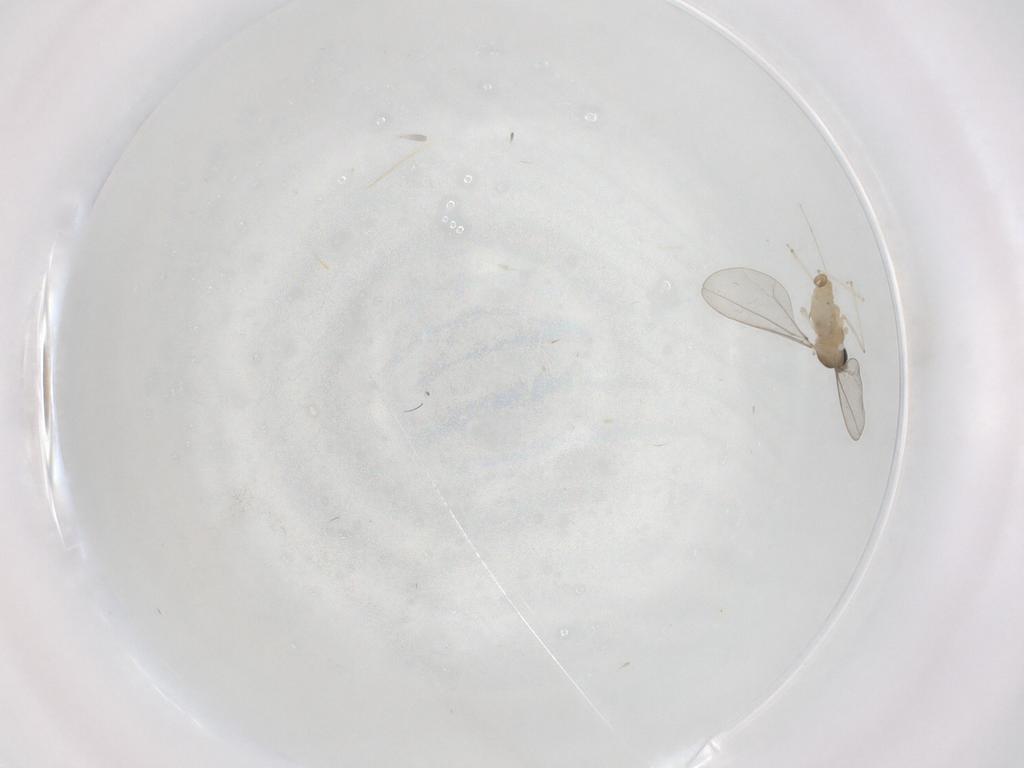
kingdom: Animalia
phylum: Arthropoda
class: Insecta
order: Diptera
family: Cecidomyiidae
